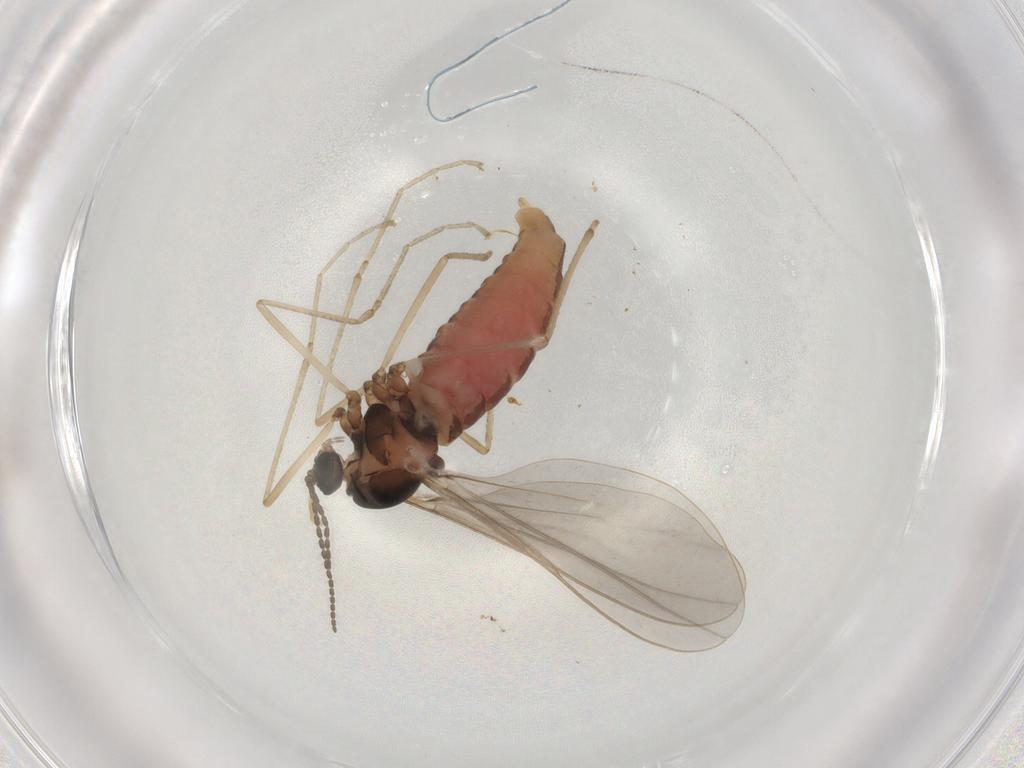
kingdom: Animalia
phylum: Arthropoda
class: Insecta
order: Diptera
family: Cecidomyiidae
